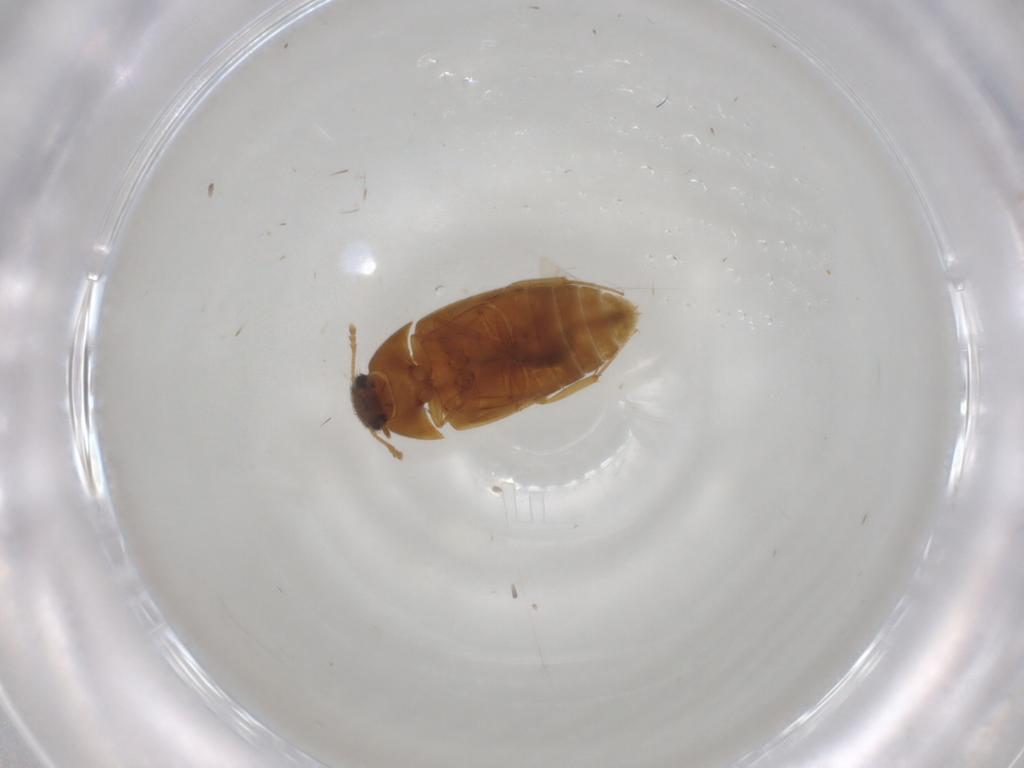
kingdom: Animalia
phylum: Arthropoda
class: Insecta
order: Coleoptera
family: Mycetophagidae
